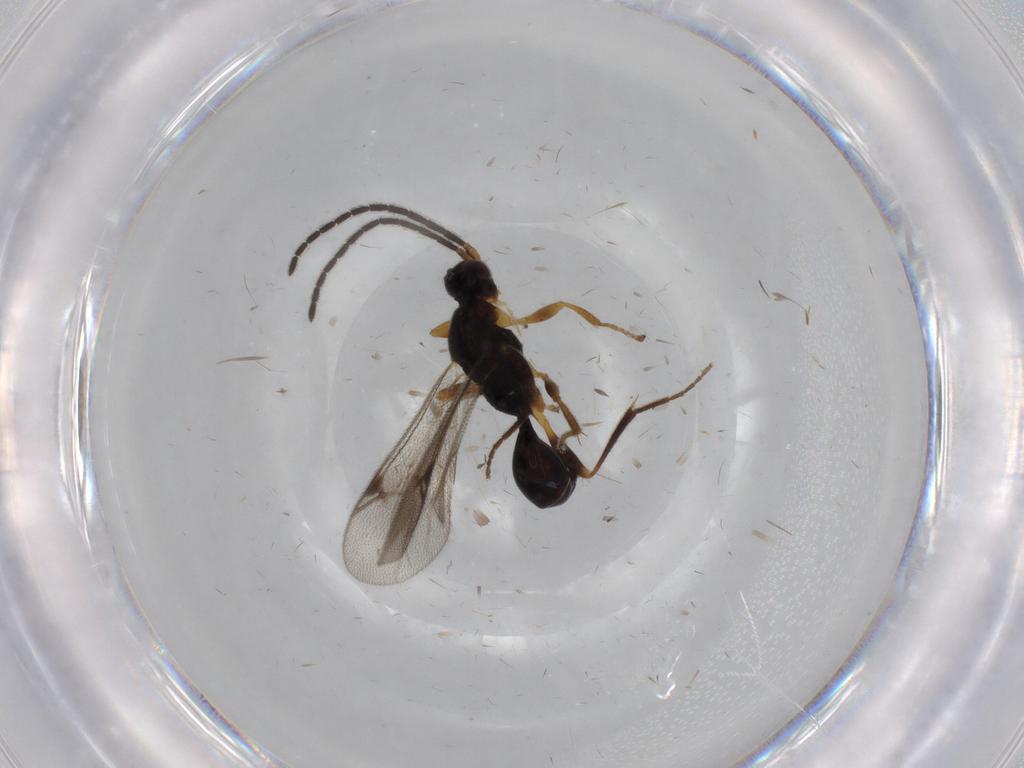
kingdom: Animalia
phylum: Arthropoda
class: Insecta
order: Hymenoptera
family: Proctotrupidae
